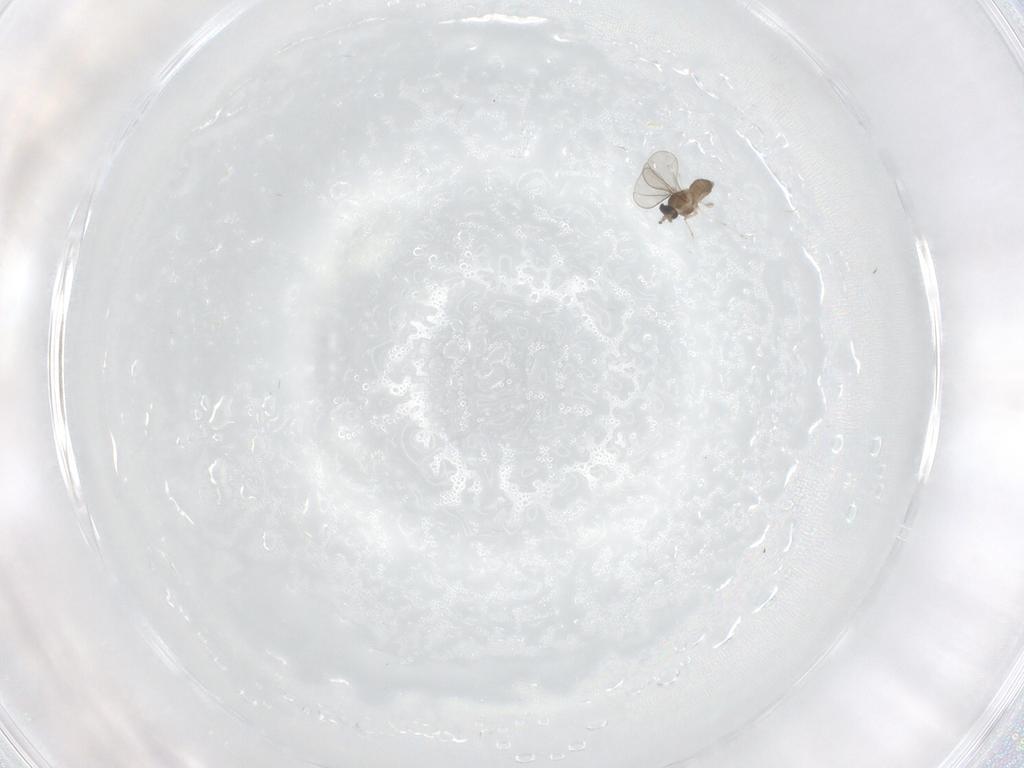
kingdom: Animalia
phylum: Arthropoda
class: Insecta
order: Diptera
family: Cecidomyiidae
